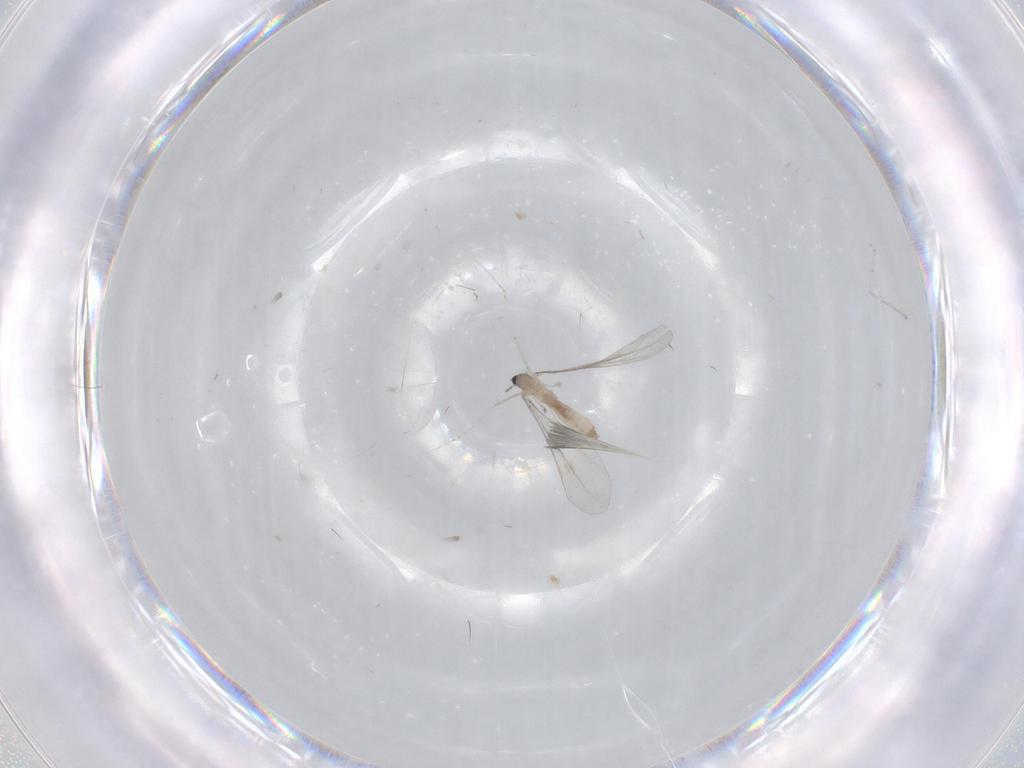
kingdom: Animalia
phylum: Arthropoda
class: Insecta
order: Diptera
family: Cecidomyiidae
